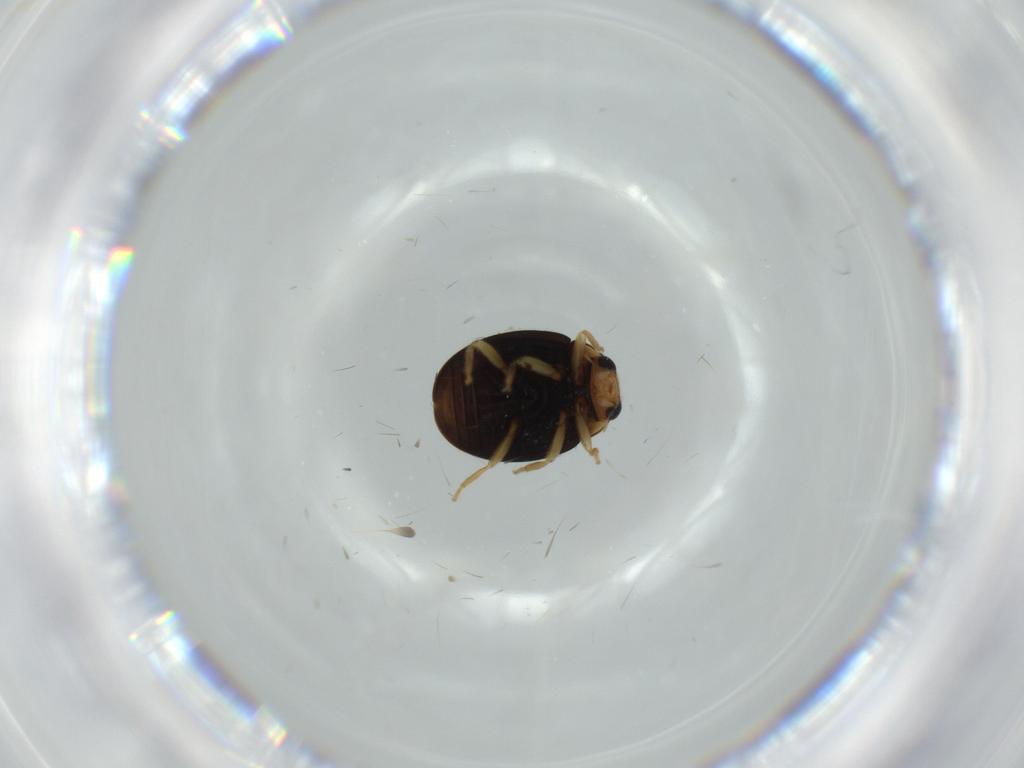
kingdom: Animalia
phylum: Arthropoda
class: Insecta
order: Coleoptera
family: Coccinellidae
